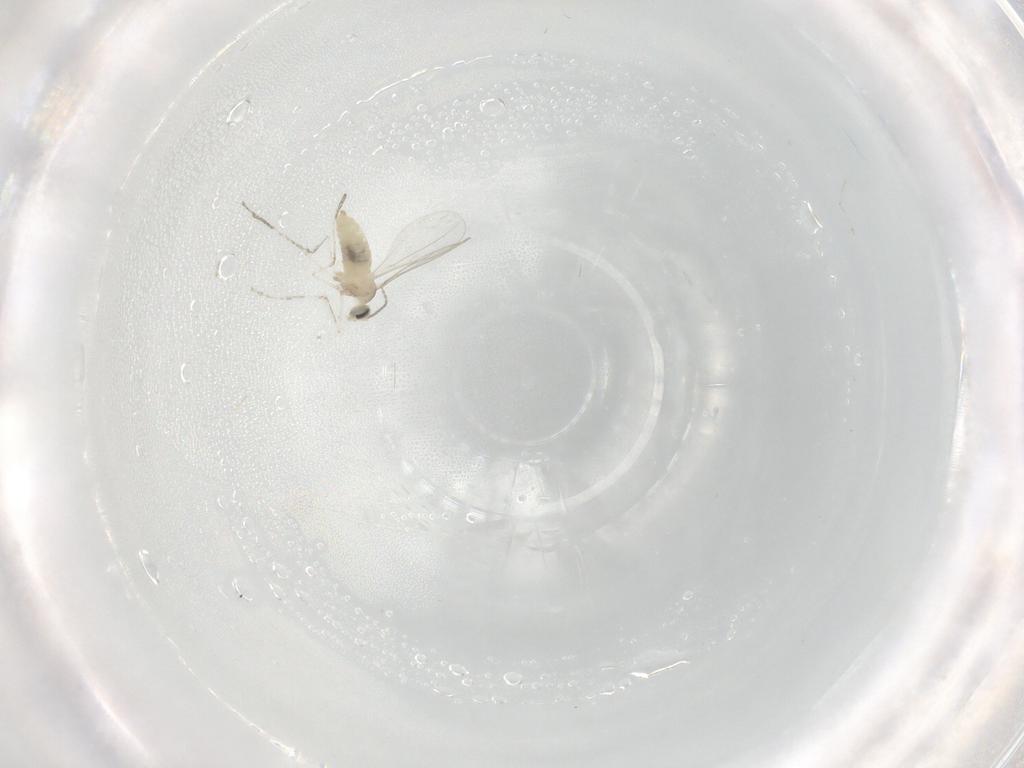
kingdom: Animalia
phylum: Arthropoda
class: Insecta
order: Diptera
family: Cecidomyiidae
